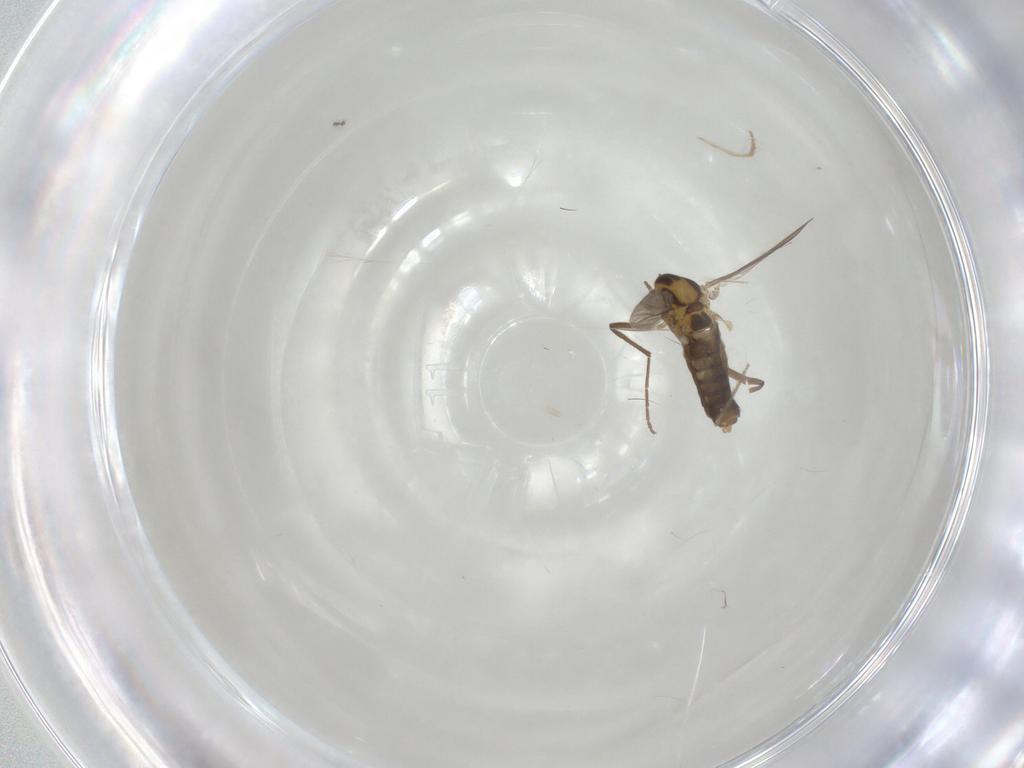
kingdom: Animalia
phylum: Arthropoda
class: Insecta
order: Diptera
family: Chironomidae
